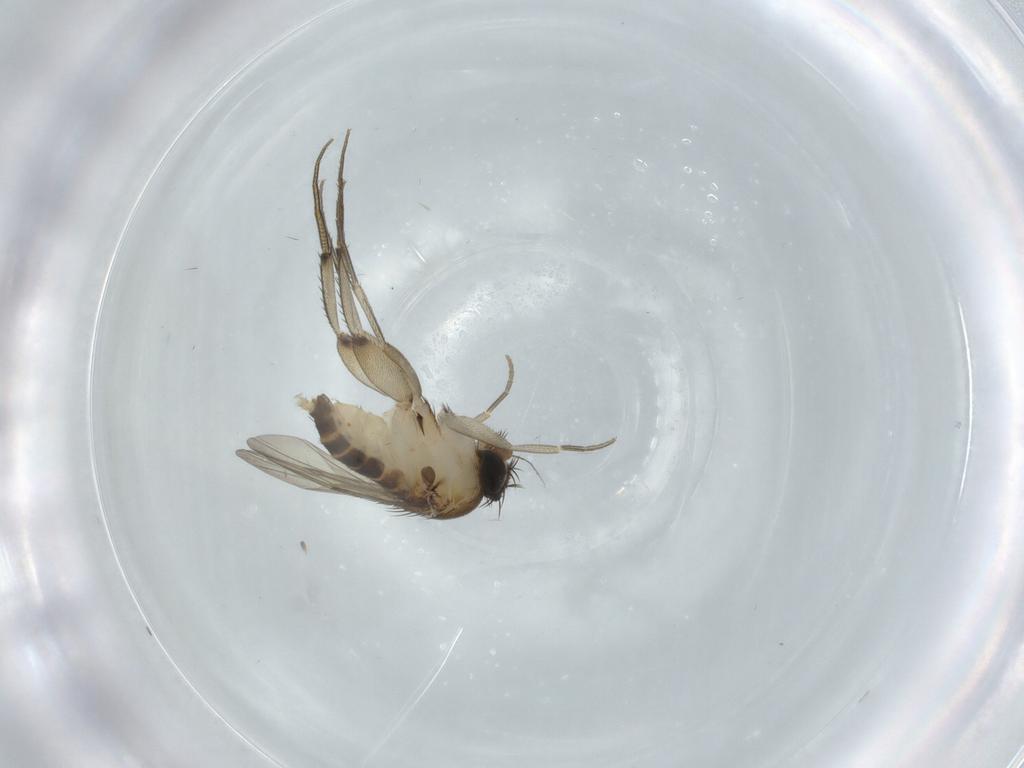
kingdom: Animalia
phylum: Arthropoda
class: Insecta
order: Diptera
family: Phoridae
